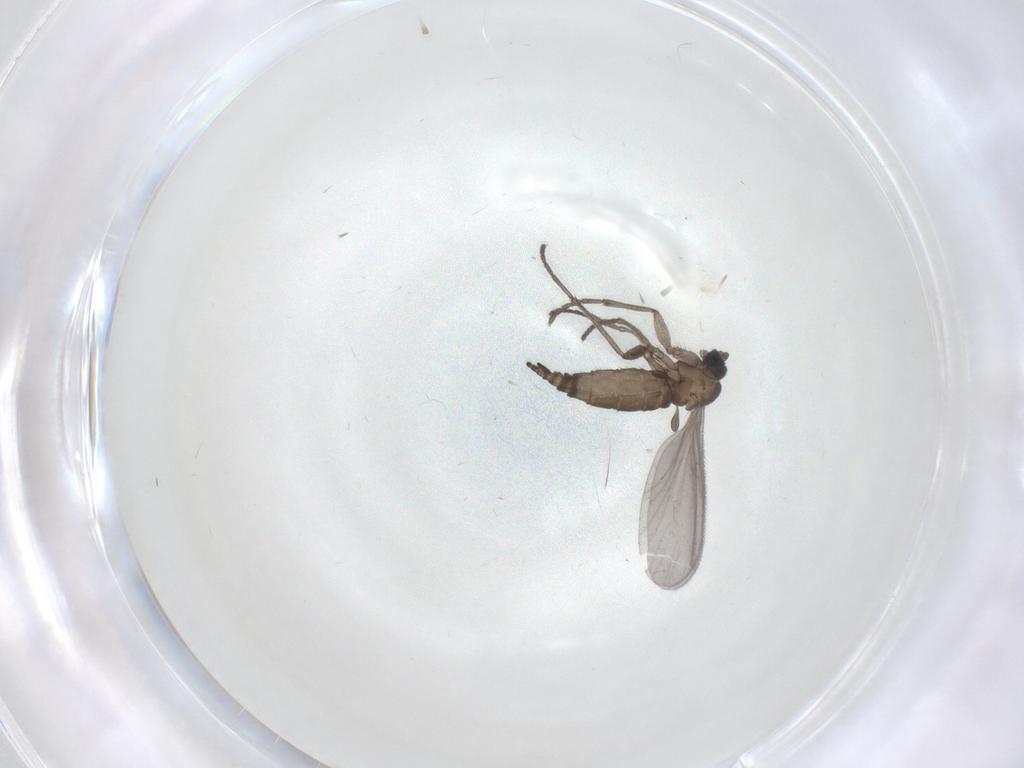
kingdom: Animalia
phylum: Arthropoda
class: Insecta
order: Diptera
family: Sciaridae
